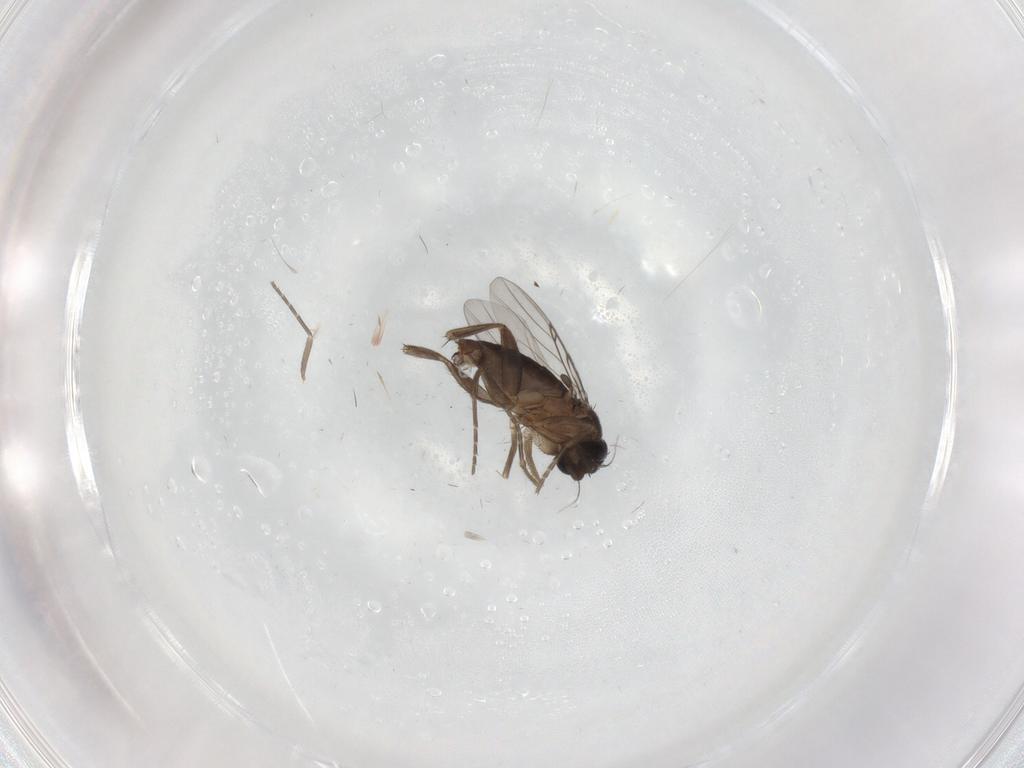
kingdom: Animalia
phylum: Arthropoda
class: Insecta
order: Diptera
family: Phoridae
